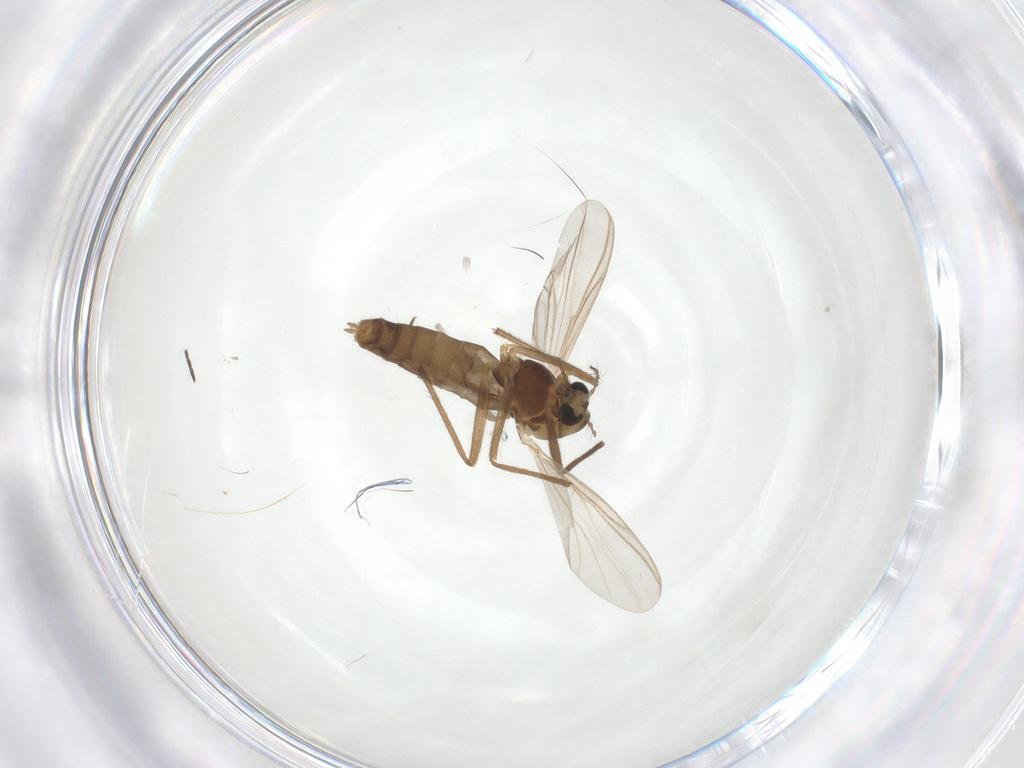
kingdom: Animalia
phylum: Arthropoda
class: Insecta
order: Diptera
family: Chironomidae
